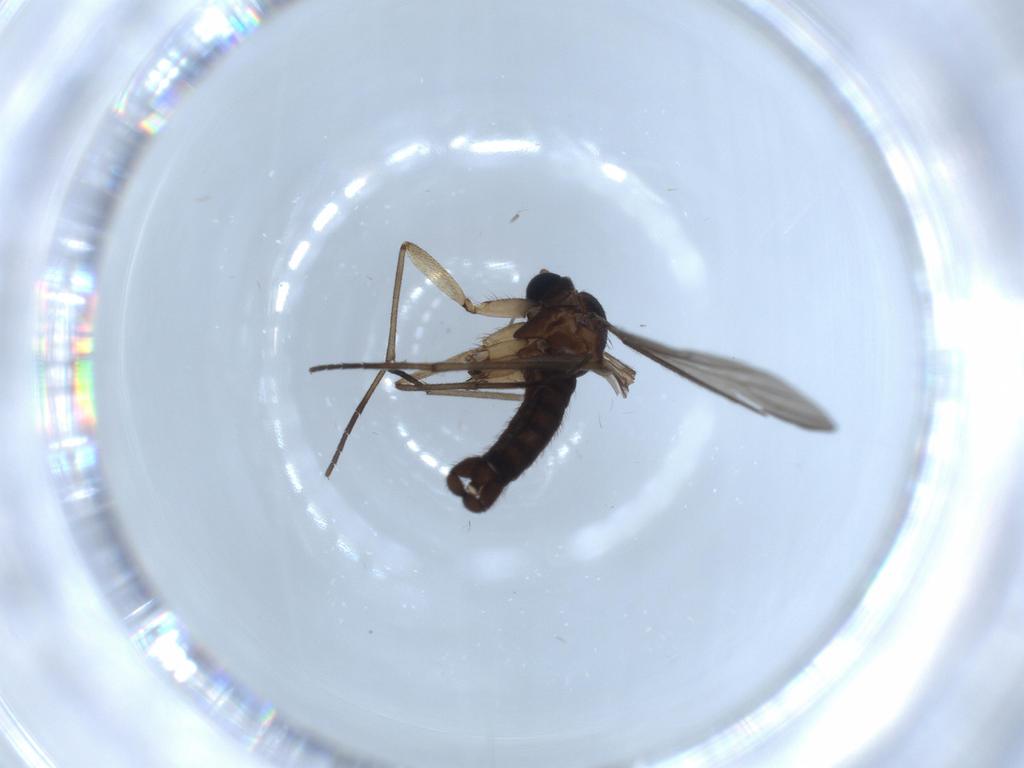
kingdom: Animalia
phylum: Arthropoda
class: Insecta
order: Diptera
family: Sciaridae
